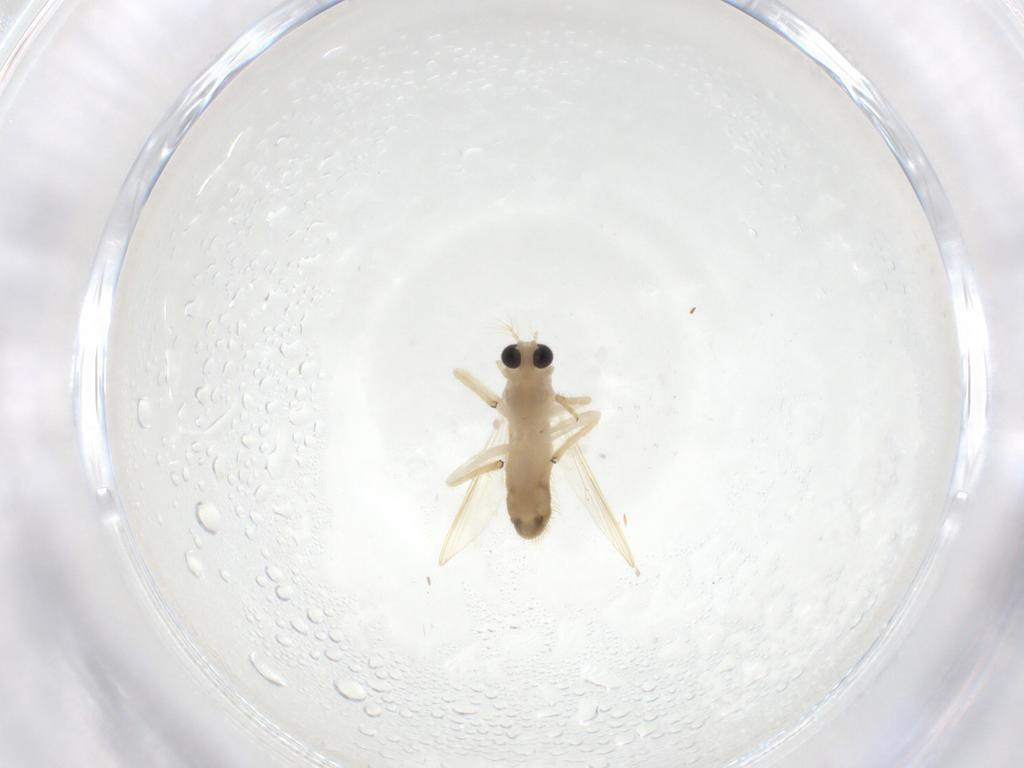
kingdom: Animalia
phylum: Arthropoda
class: Insecta
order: Diptera
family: Chironomidae
